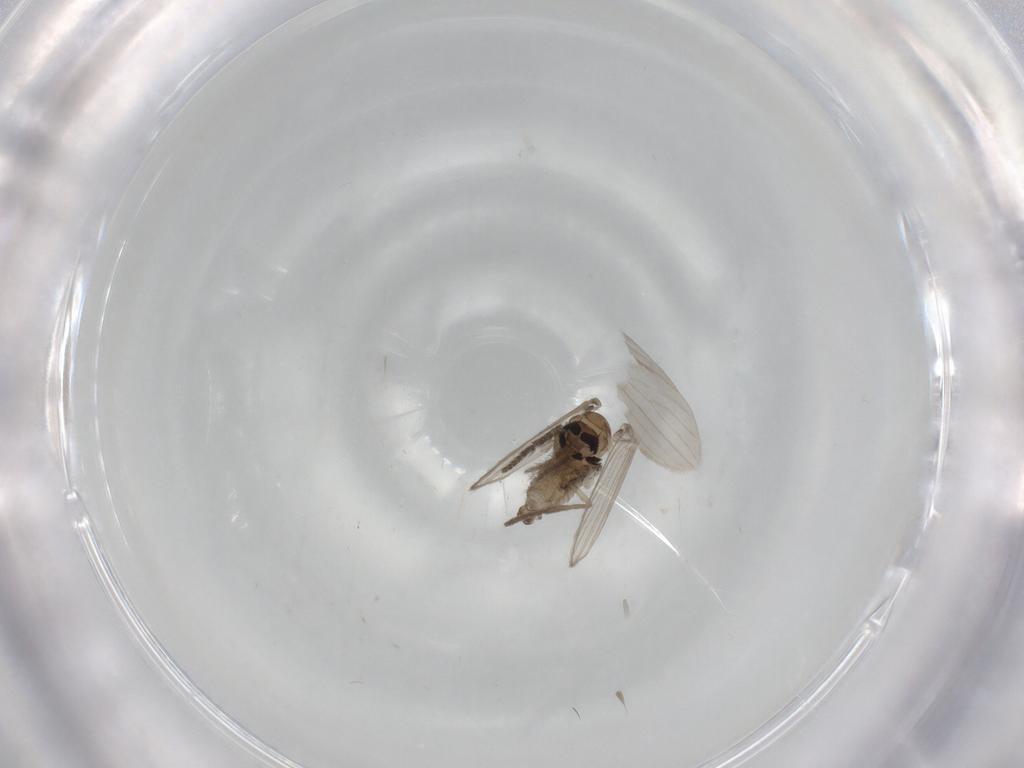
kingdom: Animalia
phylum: Arthropoda
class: Insecta
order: Diptera
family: Psychodidae
